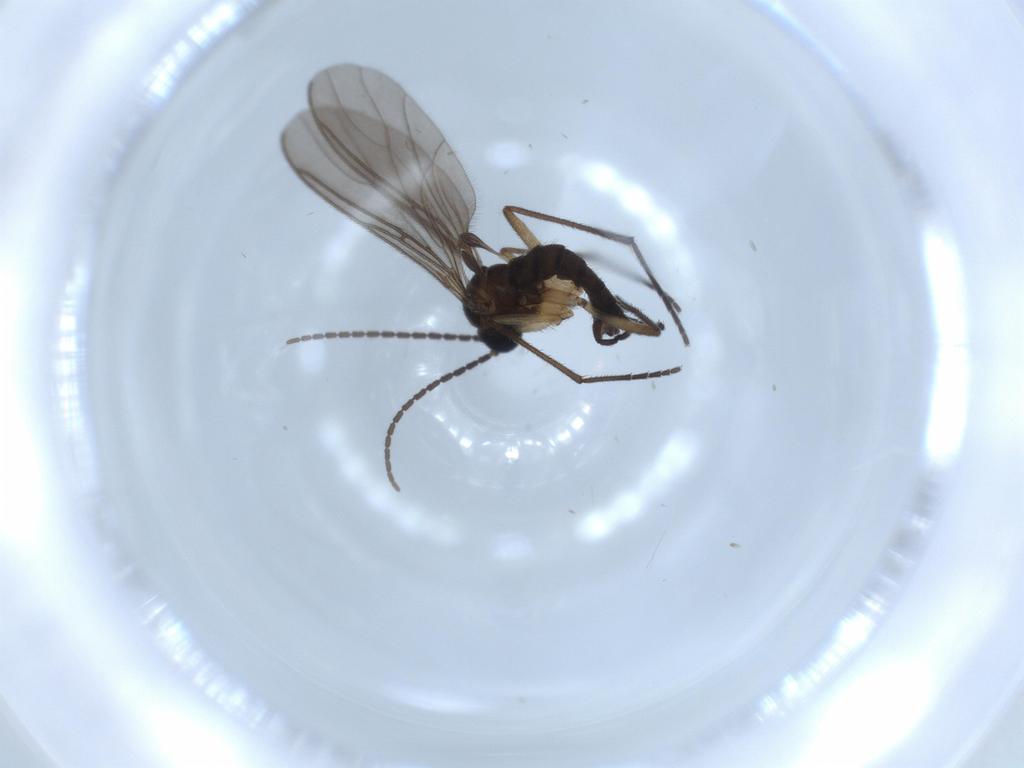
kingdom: Animalia
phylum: Arthropoda
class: Insecta
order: Diptera
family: Sciaridae
